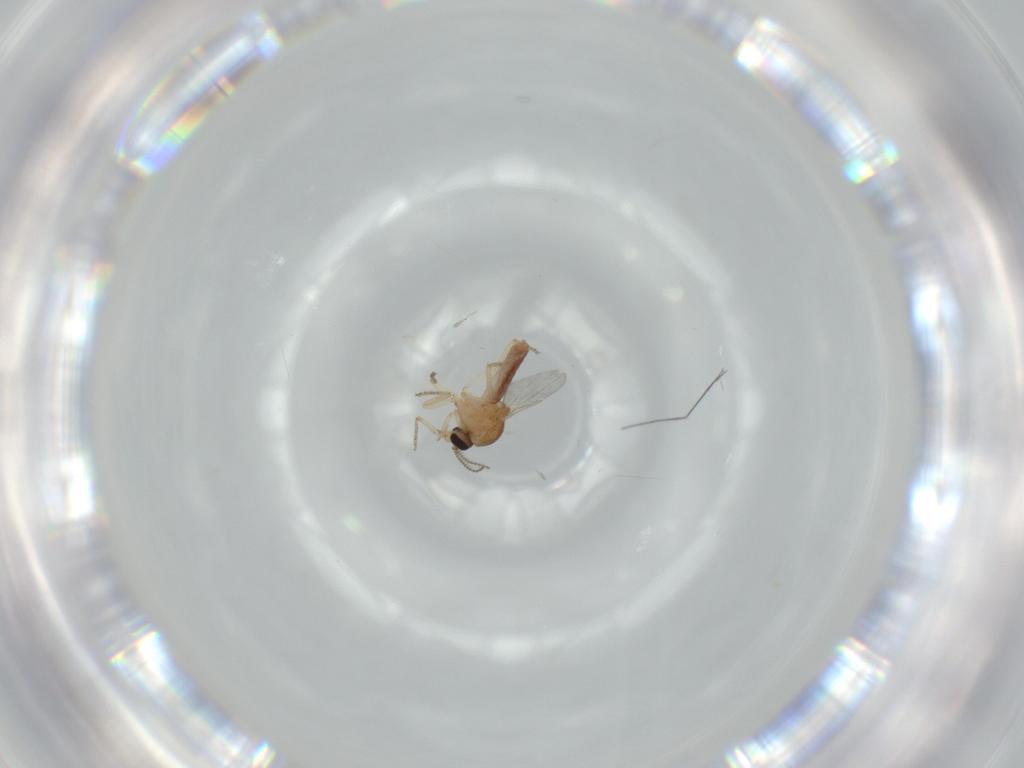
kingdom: Animalia
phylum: Arthropoda
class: Insecta
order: Diptera
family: Ceratopogonidae
